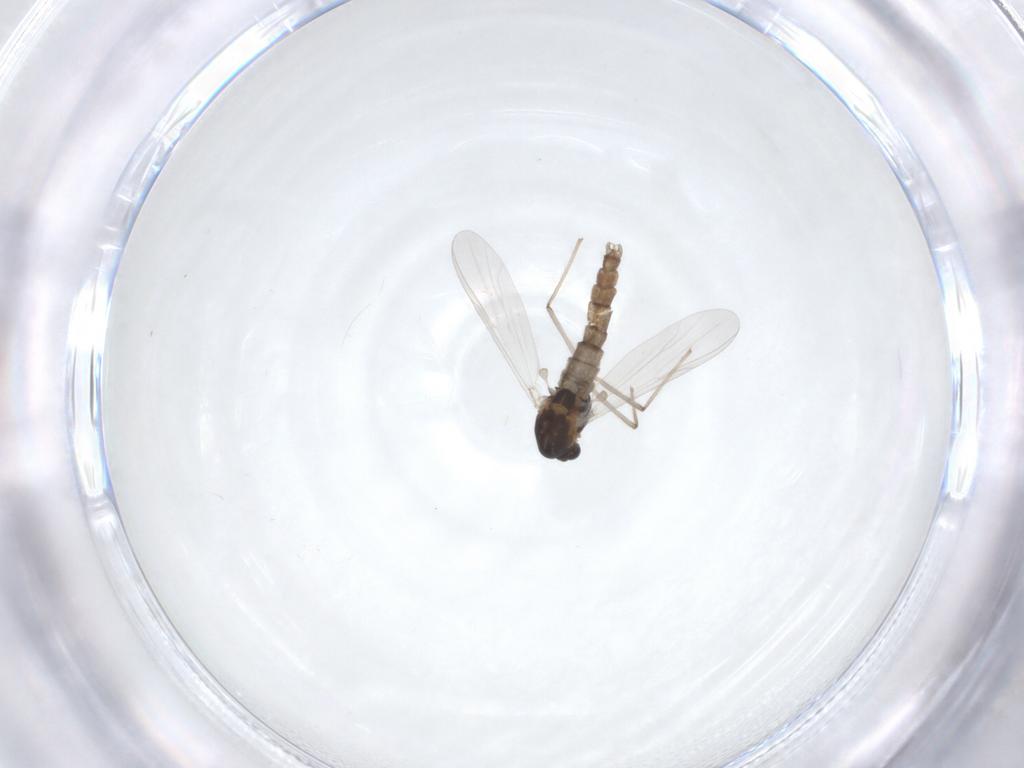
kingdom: Animalia
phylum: Arthropoda
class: Insecta
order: Diptera
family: Chironomidae
